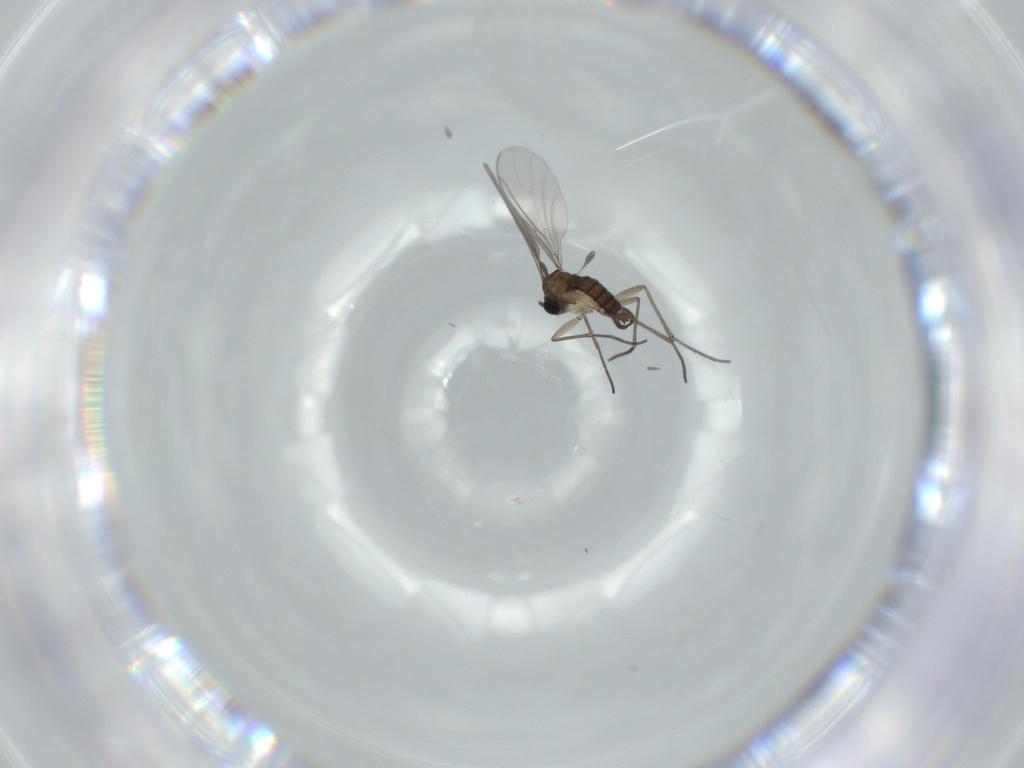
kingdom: Animalia
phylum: Arthropoda
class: Insecta
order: Diptera
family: Sciaridae
